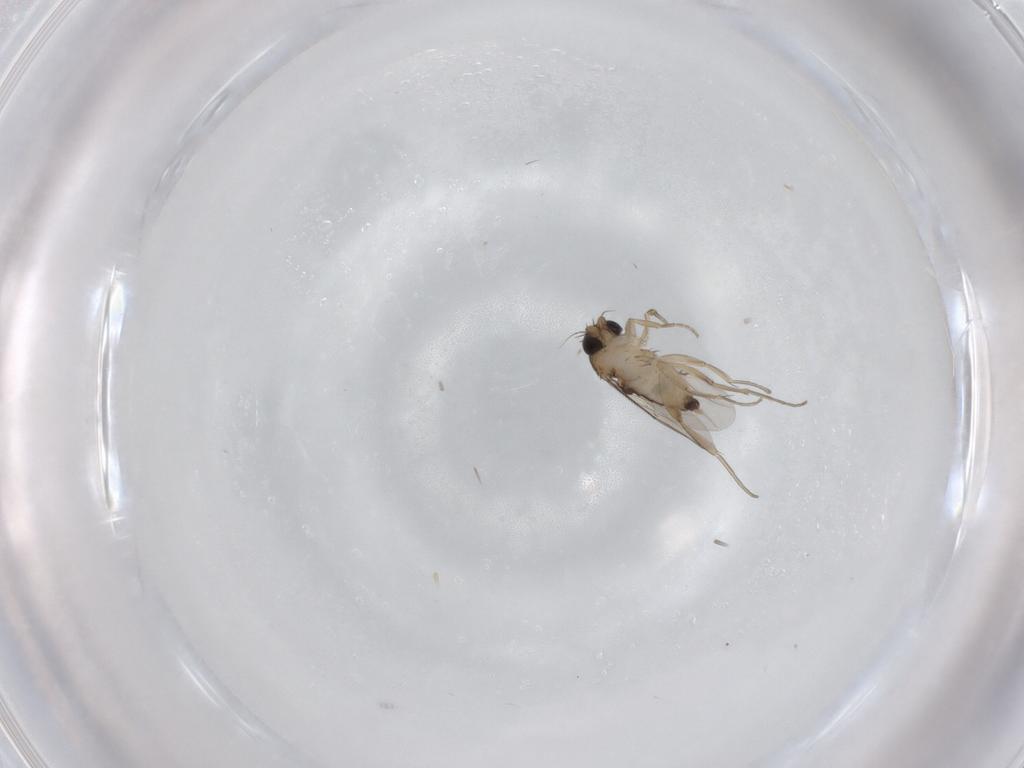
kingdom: Animalia
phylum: Arthropoda
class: Insecta
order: Diptera
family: Phoridae
